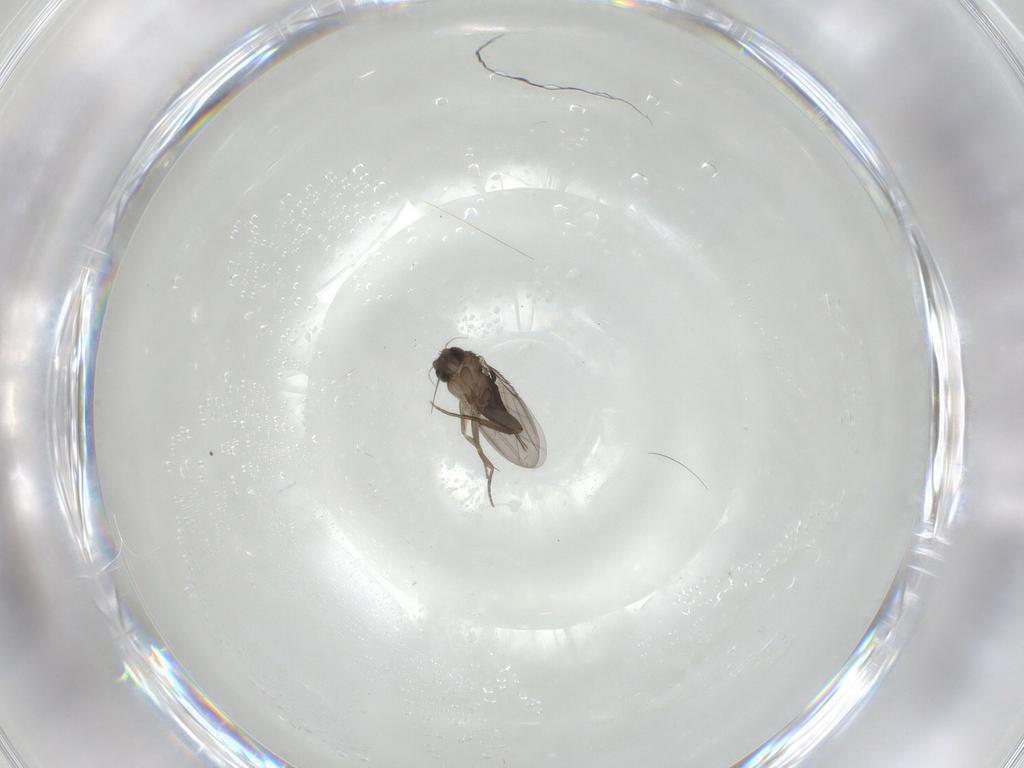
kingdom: Animalia
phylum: Arthropoda
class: Insecta
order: Diptera
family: Phoridae
